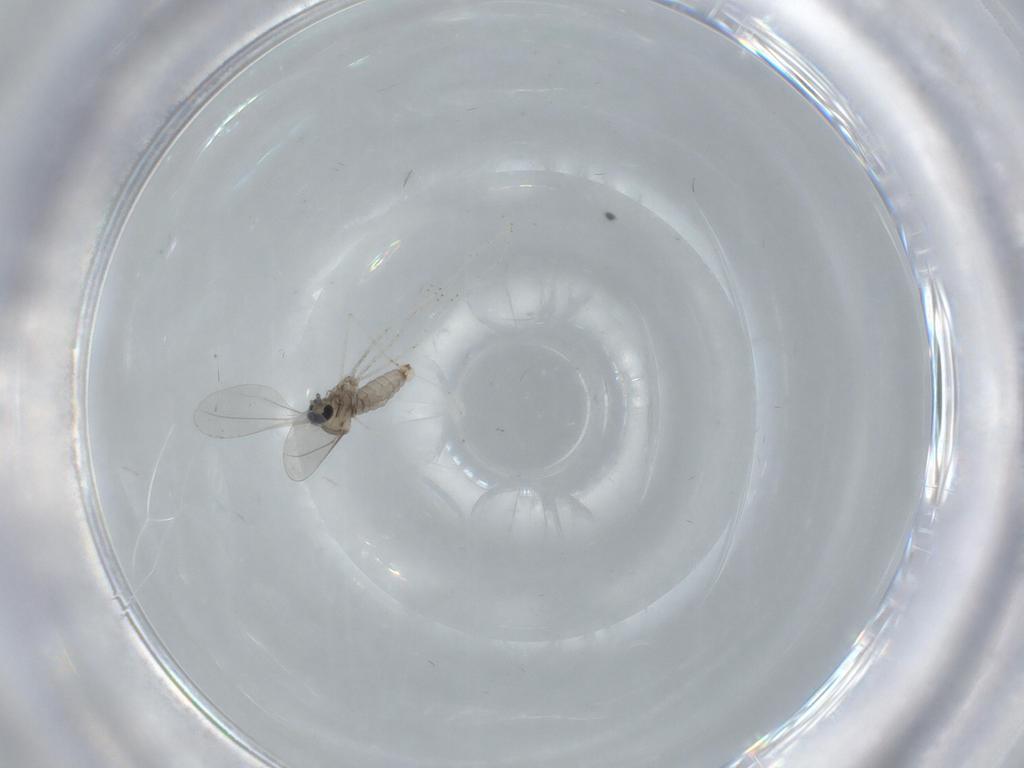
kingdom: Animalia
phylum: Arthropoda
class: Insecta
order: Diptera
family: Cecidomyiidae
